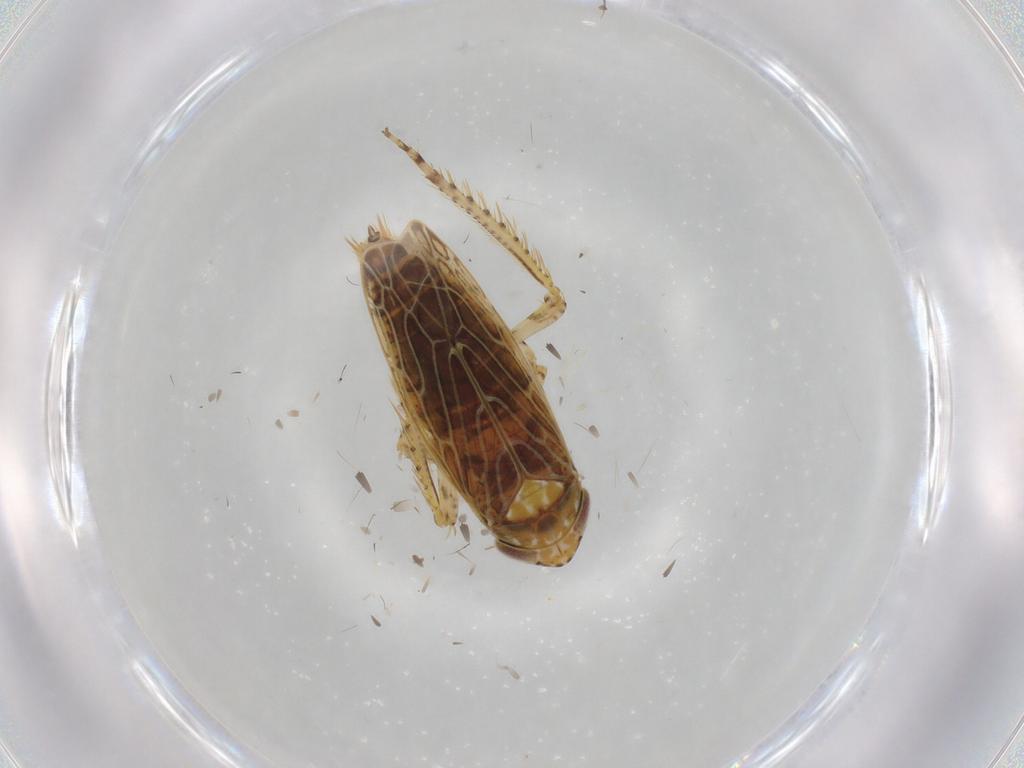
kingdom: Animalia
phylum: Arthropoda
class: Insecta
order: Hemiptera
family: Cicadellidae
